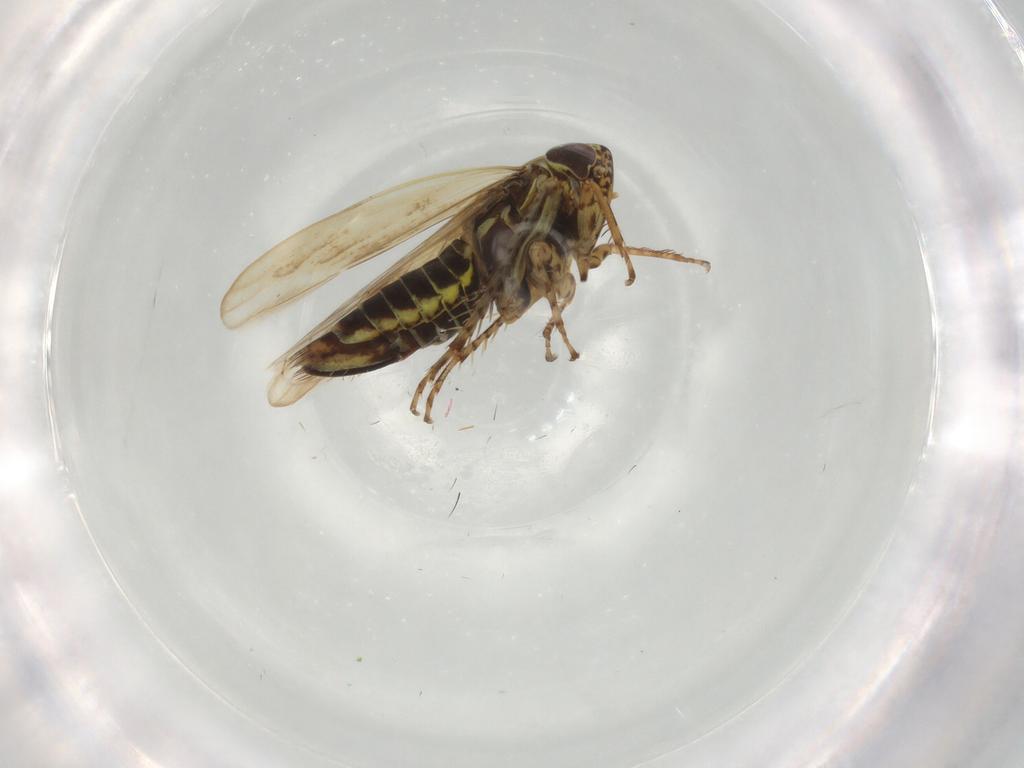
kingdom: Animalia
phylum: Arthropoda
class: Insecta
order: Hemiptera
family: Cicadellidae
